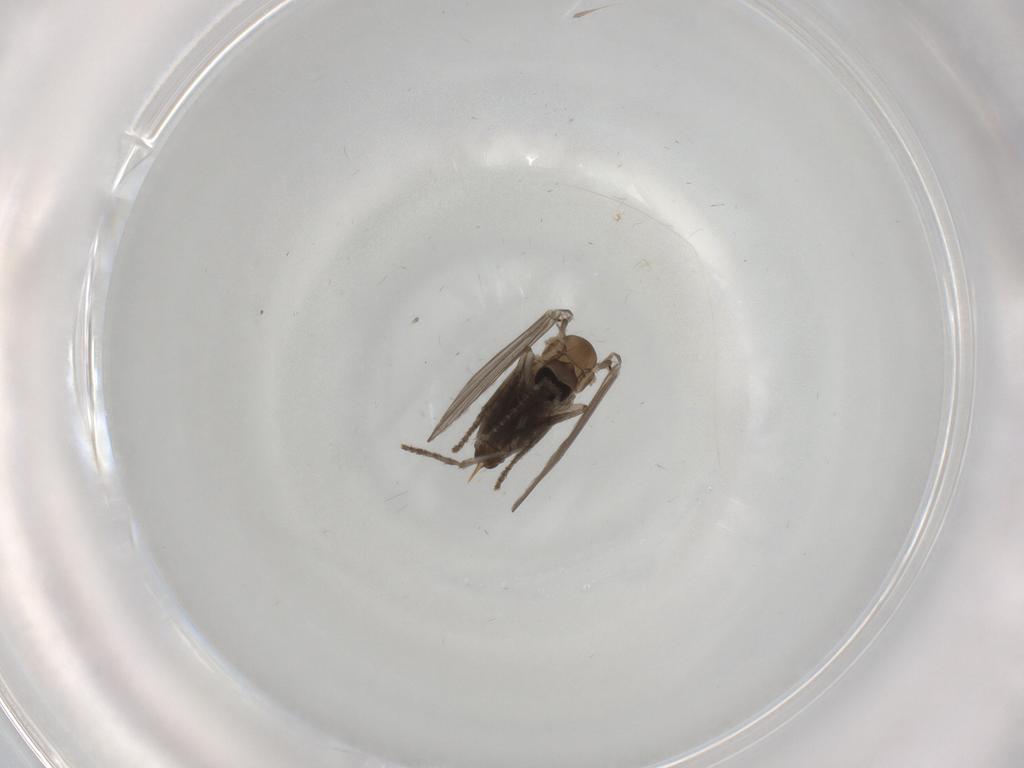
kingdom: Animalia
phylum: Arthropoda
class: Insecta
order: Diptera
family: Psychodidae
